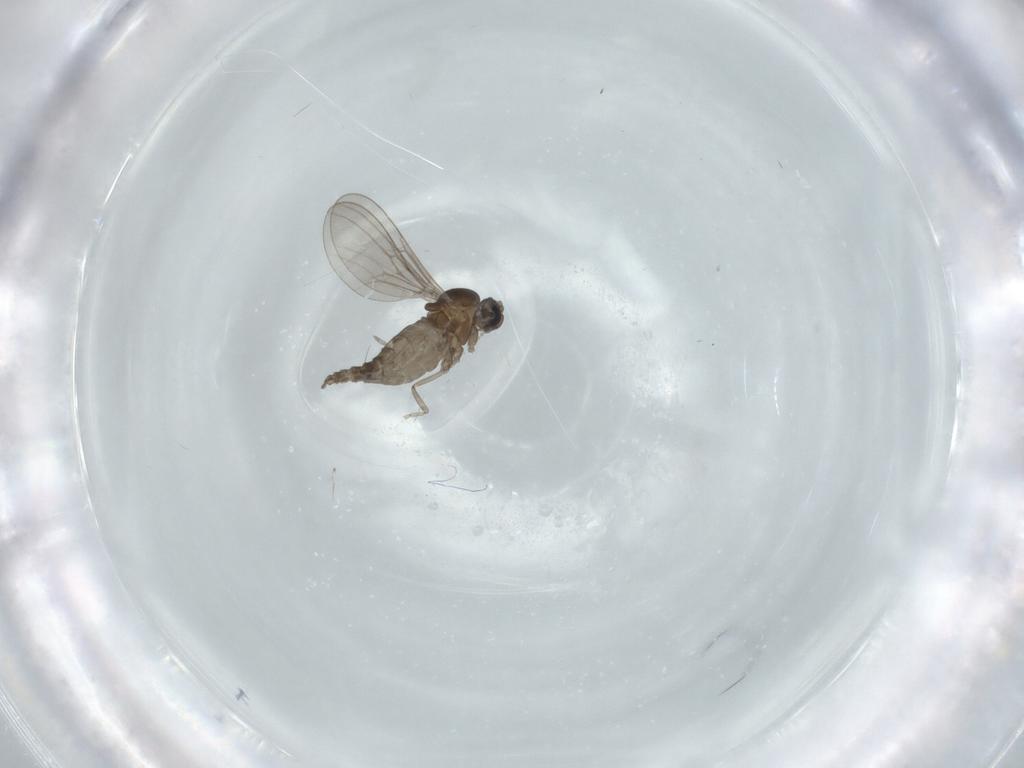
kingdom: Animalia
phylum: Arthropoda
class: Insecta
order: Diptera
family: Cecidomyiidae
